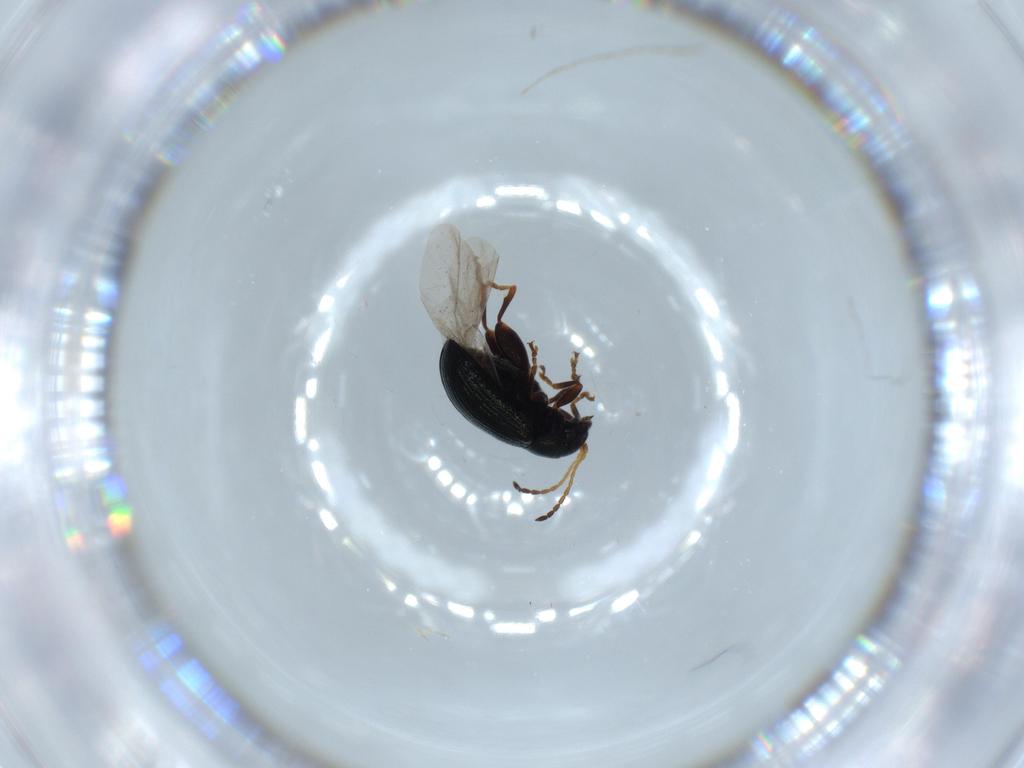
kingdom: Animalia
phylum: Arthropoda
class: Insecta
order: Coleoptera
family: Chrysomelidae
